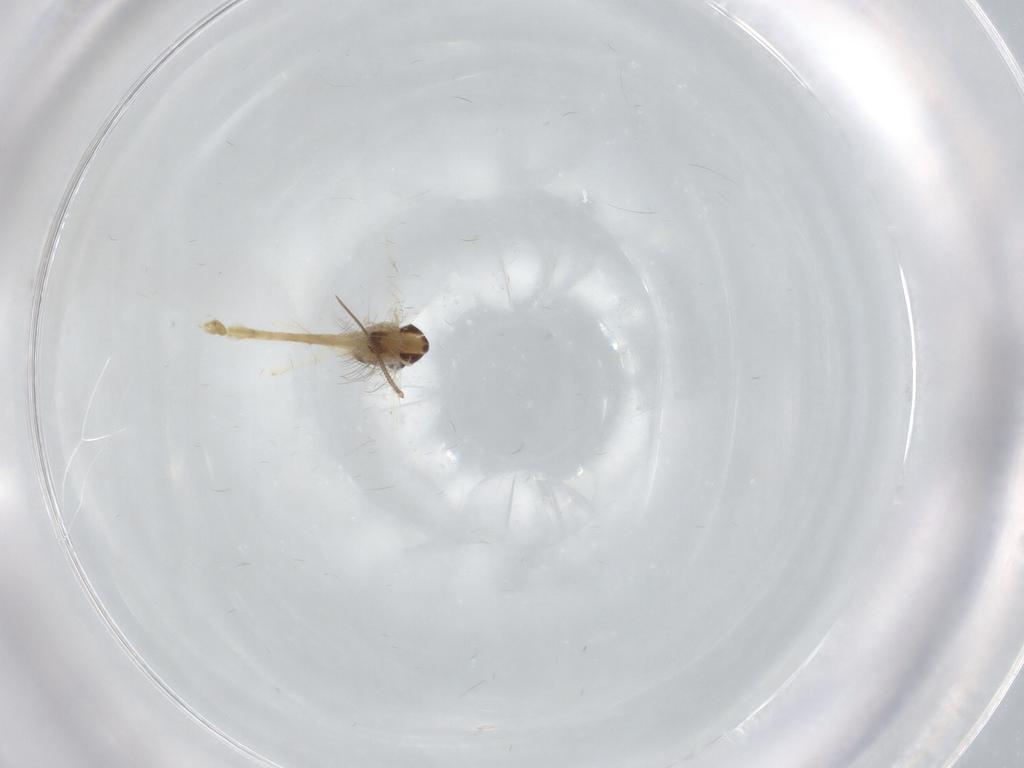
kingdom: Animalia
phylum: Arthropoda
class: Insecta
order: Diptera
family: Chironomidae
